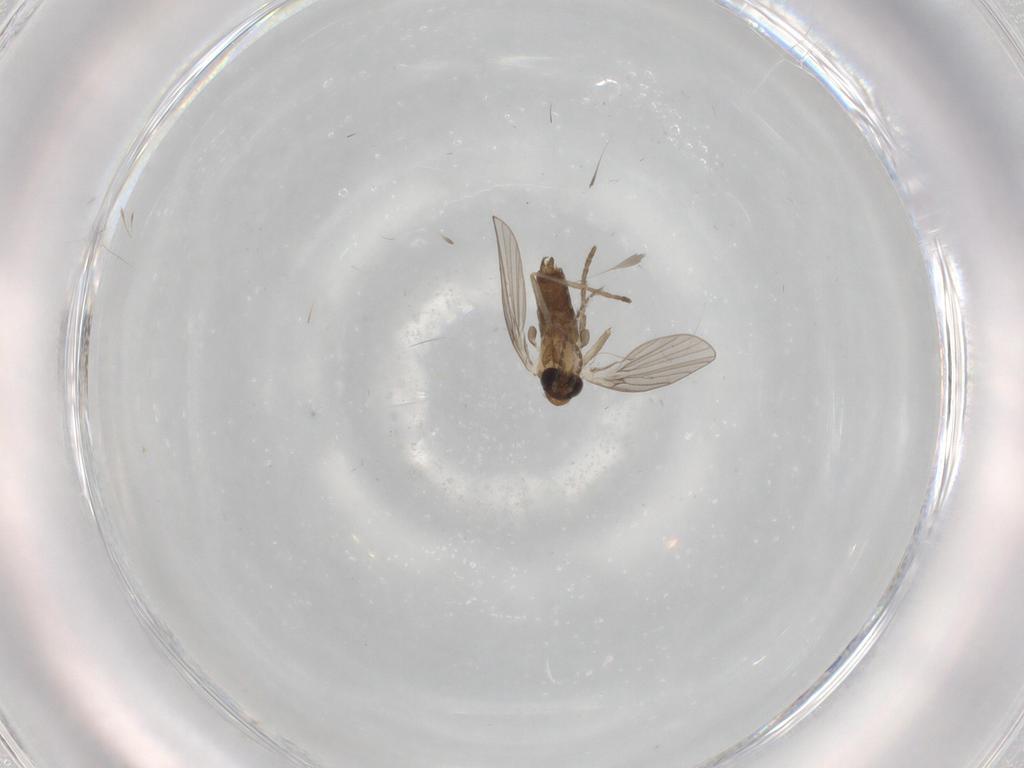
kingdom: Animalia
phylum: Arthropoda
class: Insecta
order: Diptera
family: Psychodidae
